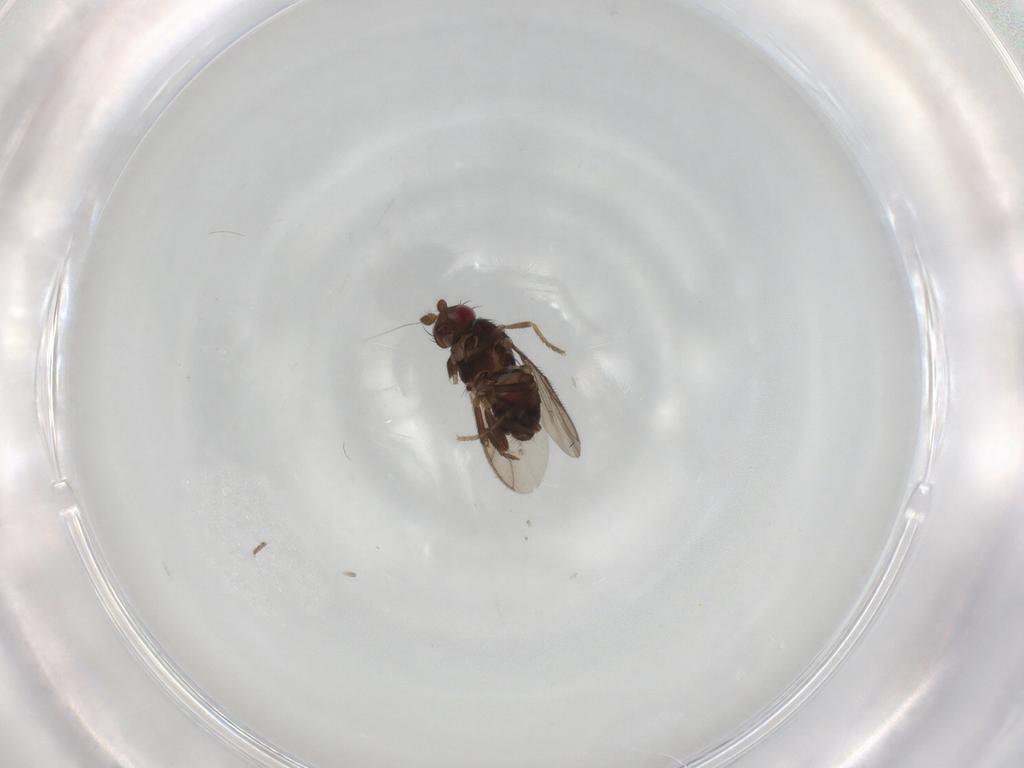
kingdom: Animalia
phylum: Arthropoda
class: Insecta
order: Diptera
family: Sphaeroceridae
